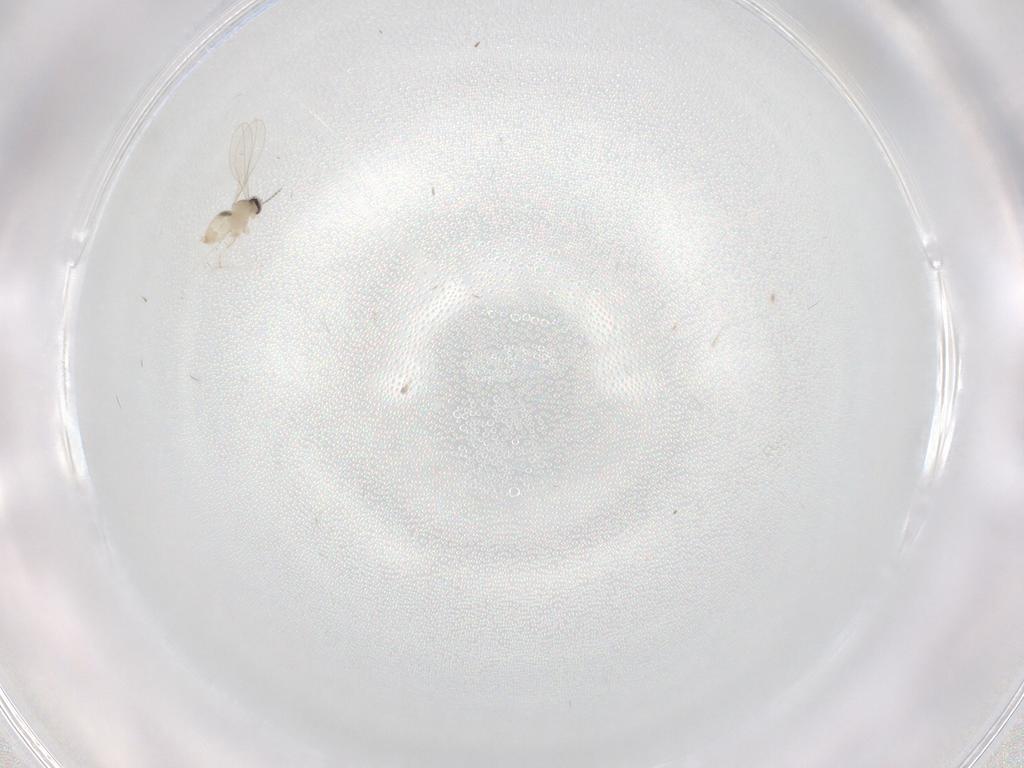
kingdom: Animalia
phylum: Arthropoda
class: Insecta
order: Diptera
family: Cecidomyiidae
